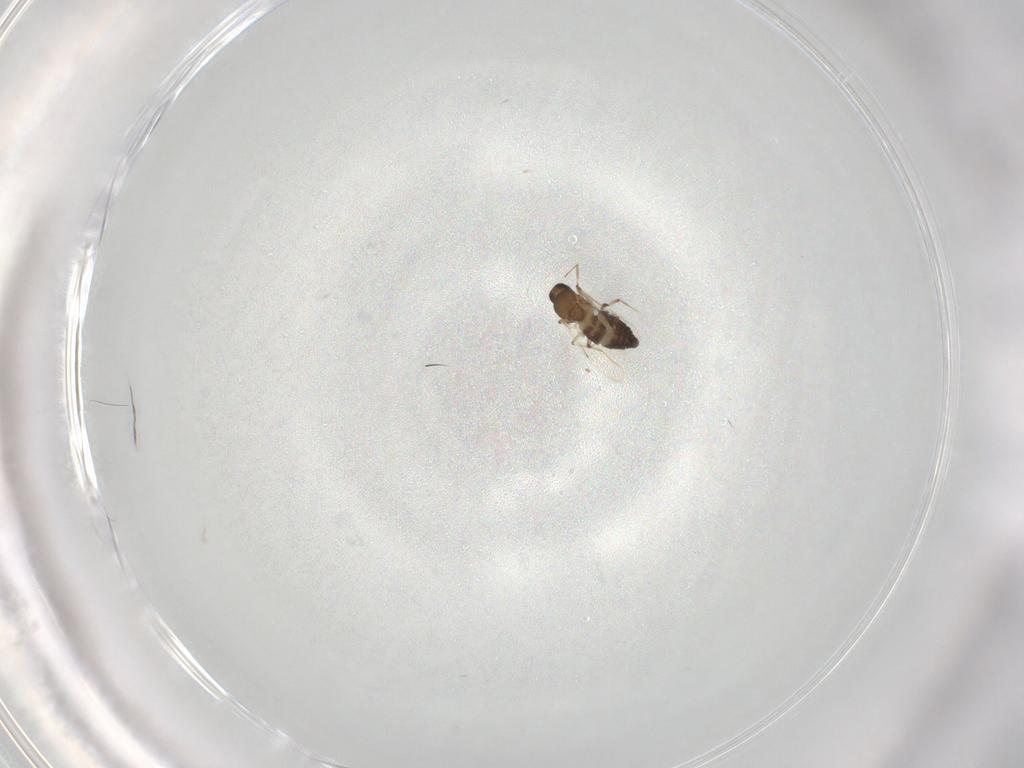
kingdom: Animalia
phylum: Arthropoda
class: Insecta
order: Diptera
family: Ceratopogonidae
